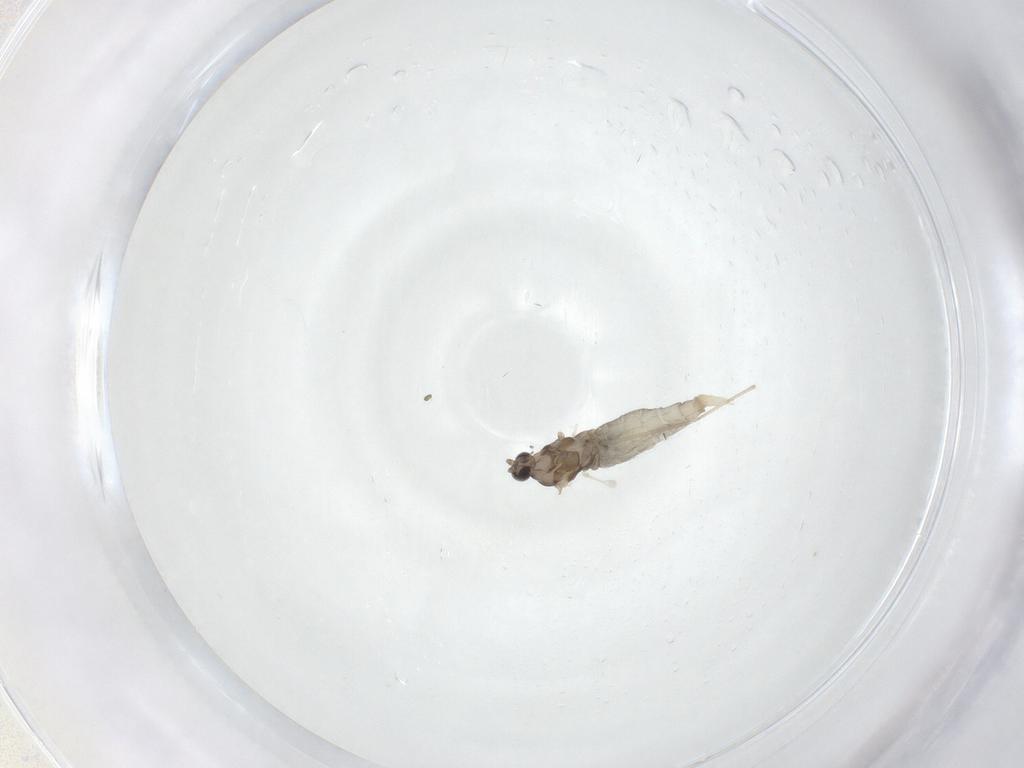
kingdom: Animalia
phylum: Arthropoda
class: Insecta
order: Diptera
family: Cecidomyiidae
